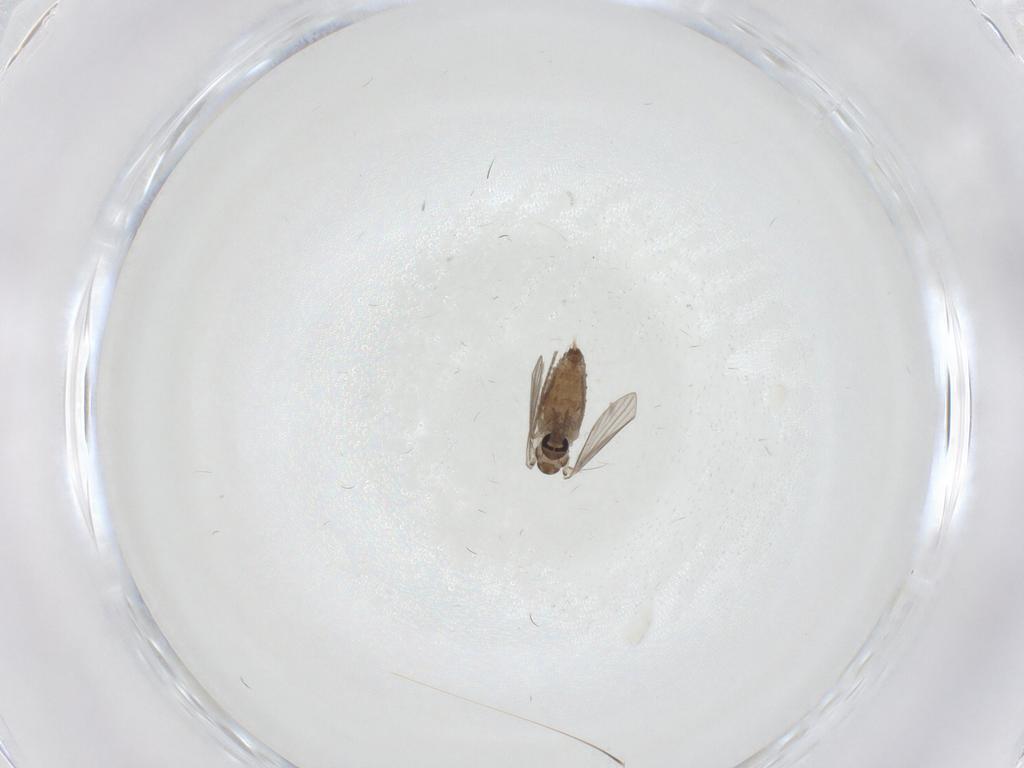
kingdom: Animalia
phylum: Arthropoda
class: Insecta
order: Diptera
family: Psychodidae
